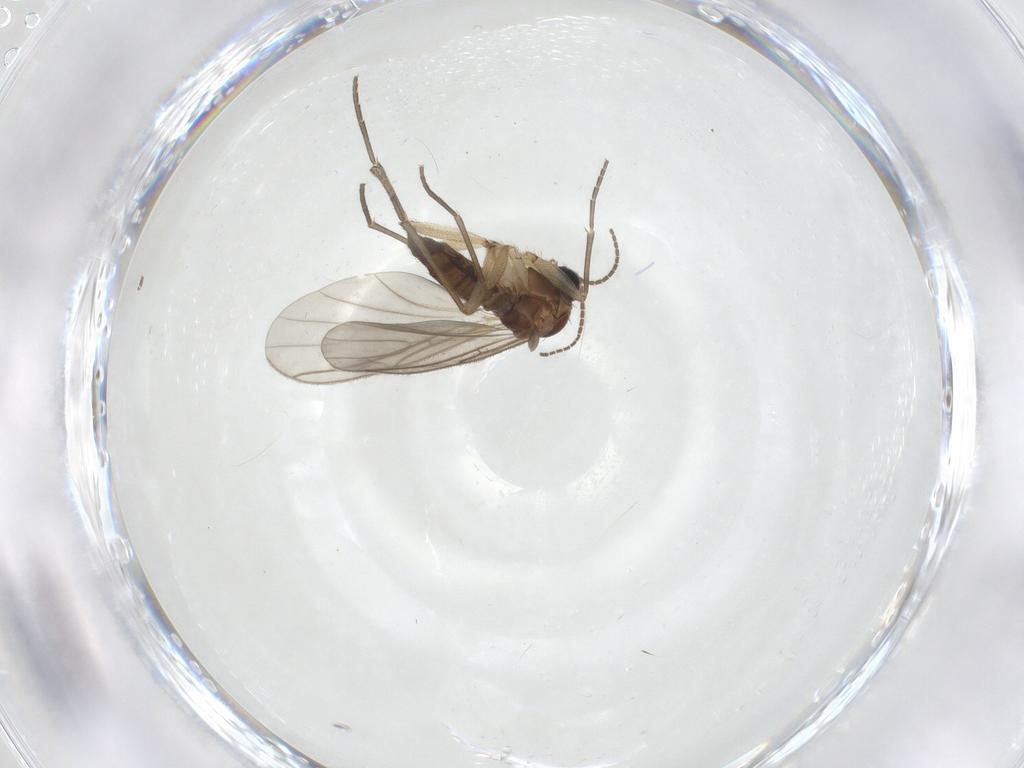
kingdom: Animalia
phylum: Arthropoda
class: Insecta
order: Diptera
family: Sciaridae
